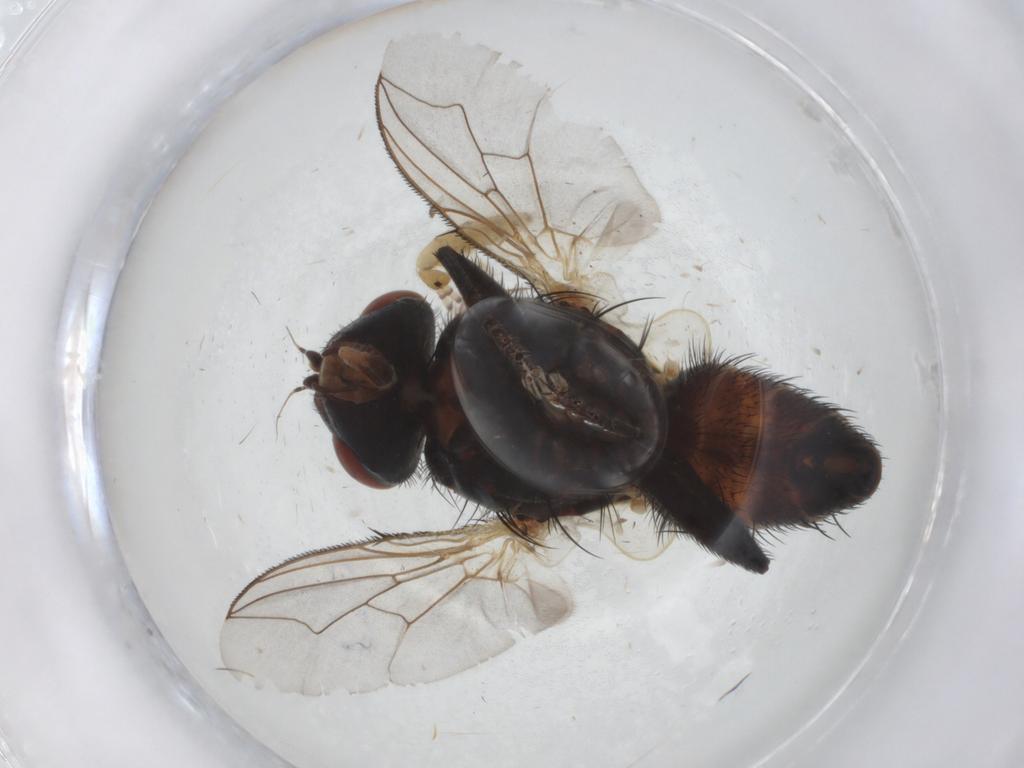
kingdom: Animalia
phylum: Arthropoda
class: Insecta
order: Diptera
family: Sarcophagidae
